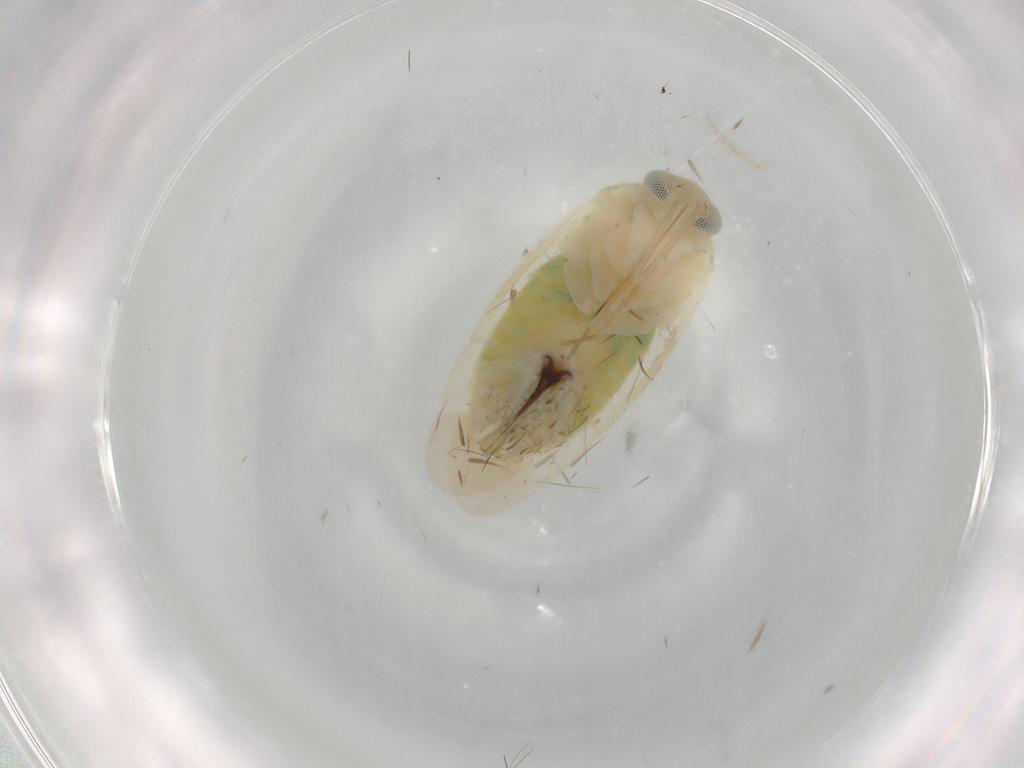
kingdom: Animalia
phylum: Arthropoda
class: Insecta
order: Hemiptera
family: Miridae
